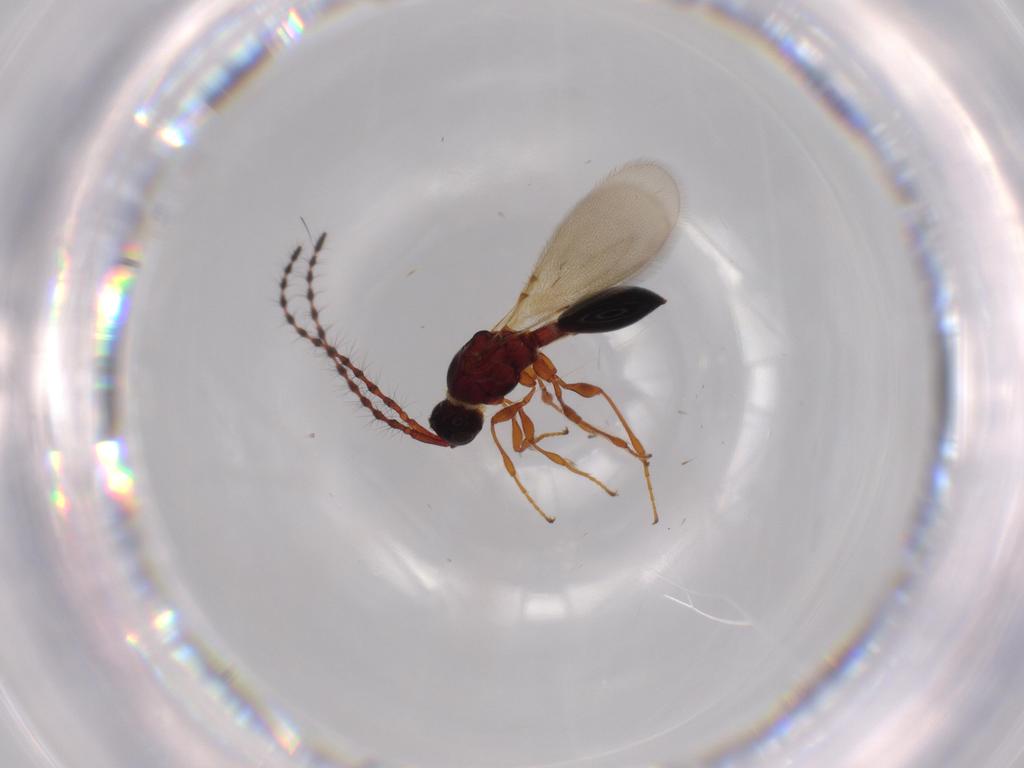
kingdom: Animalia
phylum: Arthropoda
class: Insecta
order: Hymenoptera
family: Diapriidae
